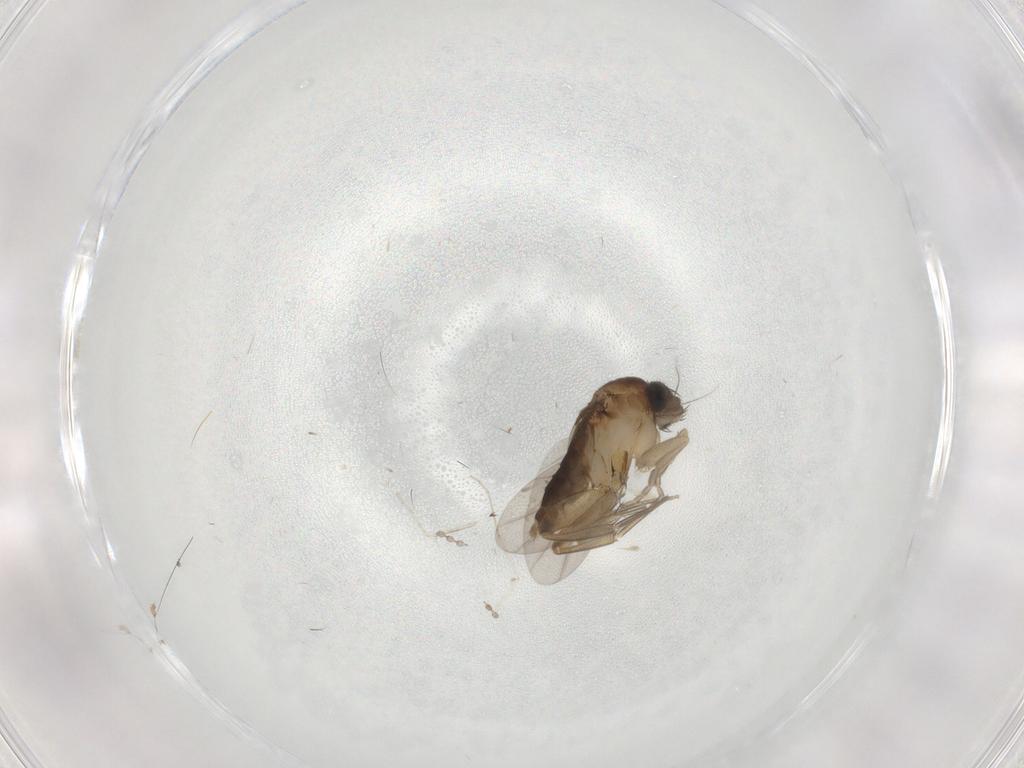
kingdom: Animalia
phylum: Arthropoda
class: Insecta
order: Diptera
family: Phoridae
